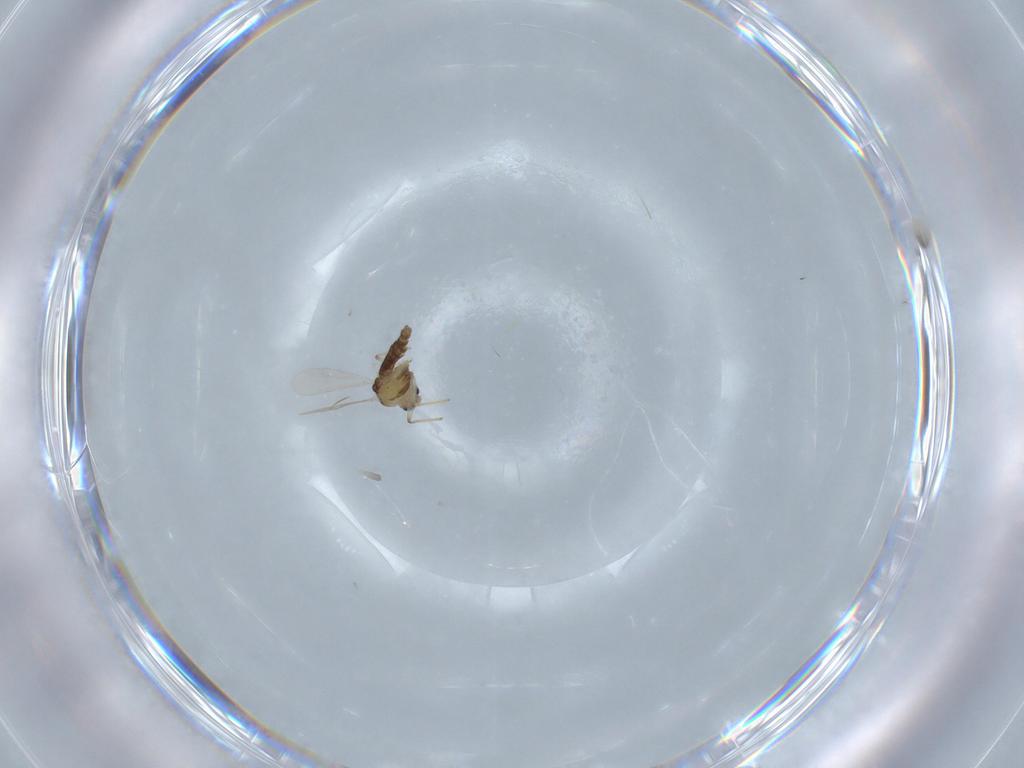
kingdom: Animalia
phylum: Arthropoda
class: Insecta
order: Diptera
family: Chironomidae
